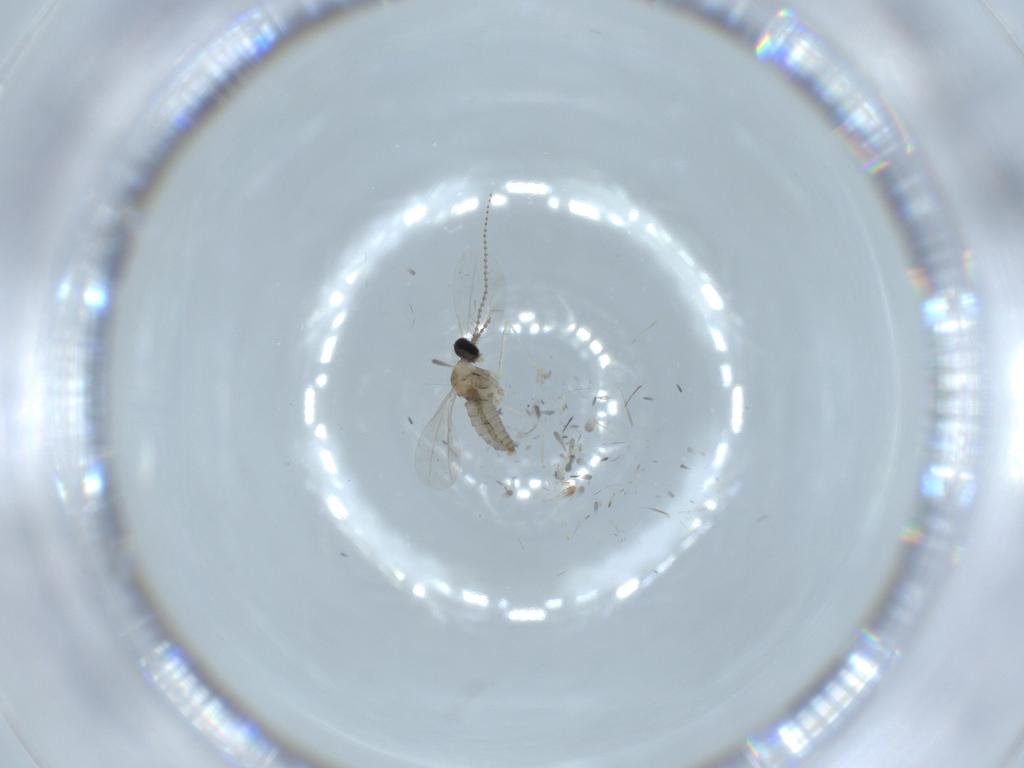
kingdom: Animalia
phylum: Arthropoda
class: Insecta
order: Diptera
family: Cecidomyiidae
